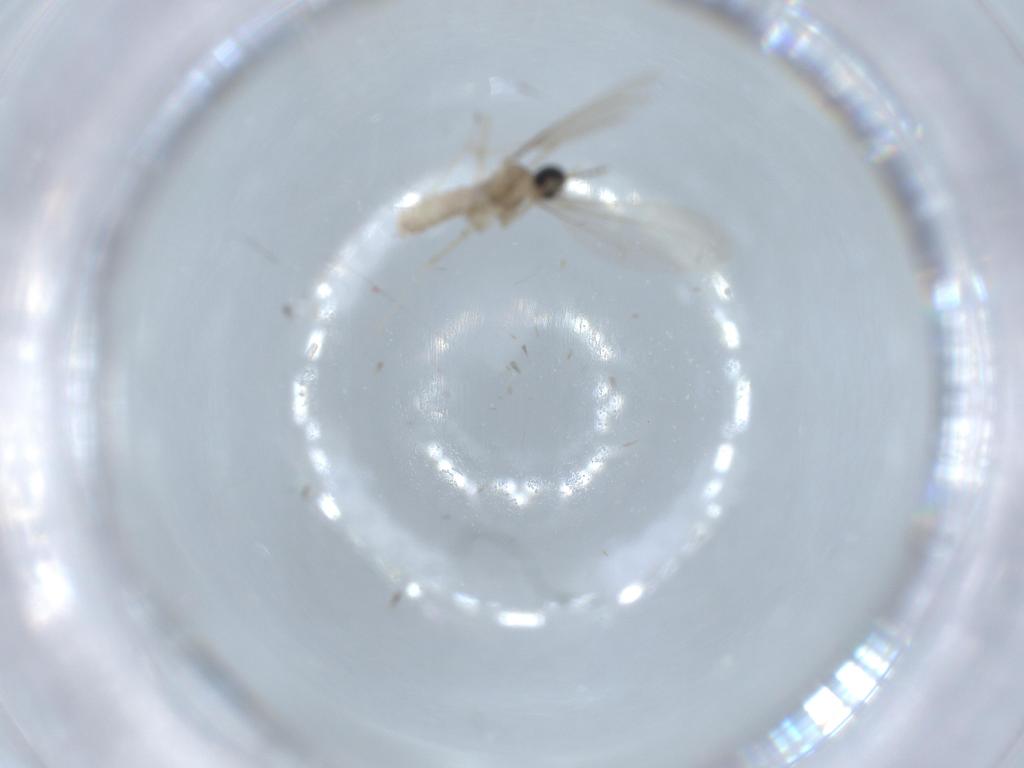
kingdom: Animalia
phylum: Arthropoda
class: Insecta
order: Diptera
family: Cecidomyiidae
